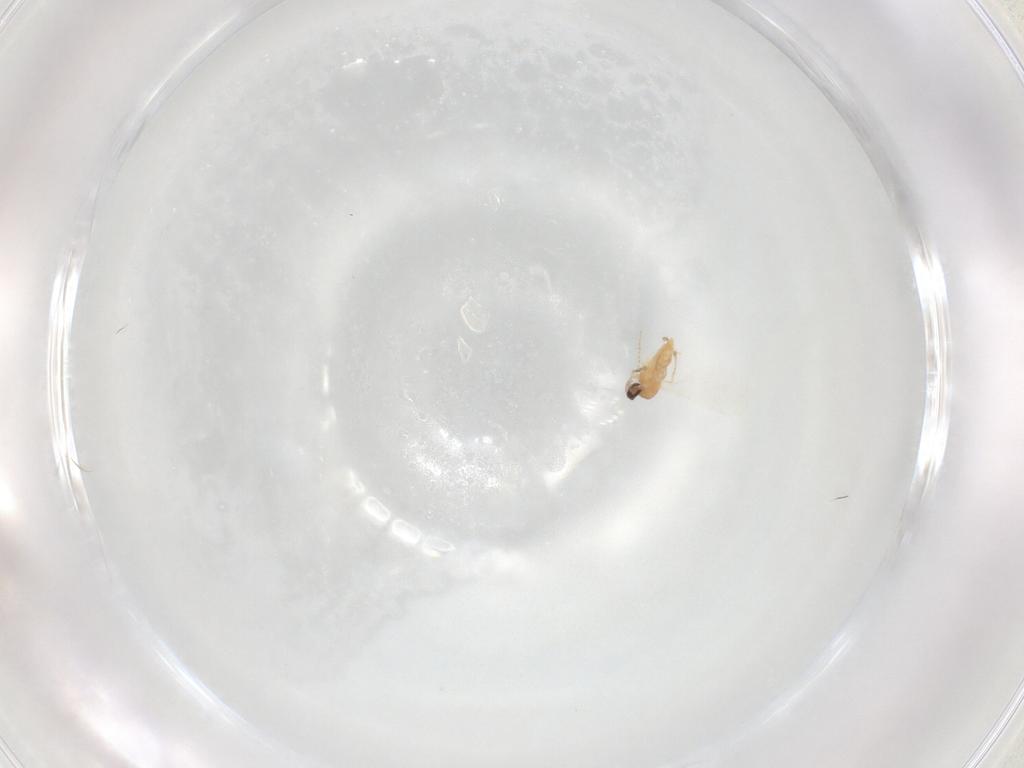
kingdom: Animalia
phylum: Arthropoda
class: Insecta
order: Diptera
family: Cecidomyiidae
